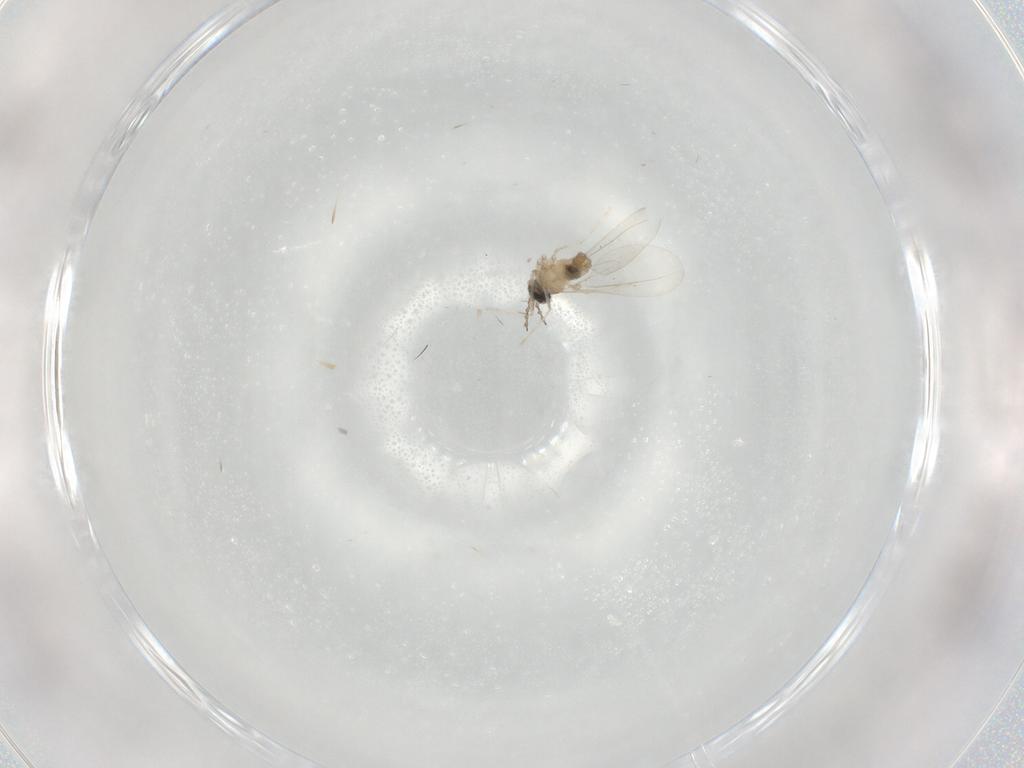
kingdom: Animalia
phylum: Arthropoda
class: Insecta
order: Diptera
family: Cecidomyiidae
